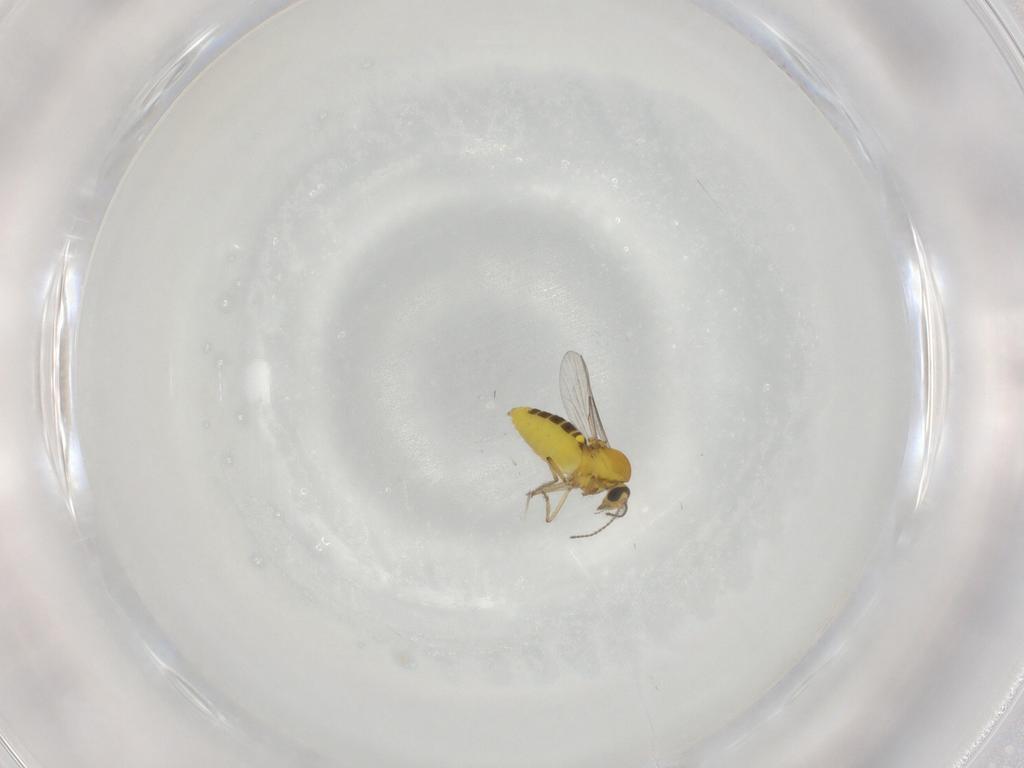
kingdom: Animalia
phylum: Arthropoda
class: Insecta
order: Diptera
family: Ceratopogonidae
